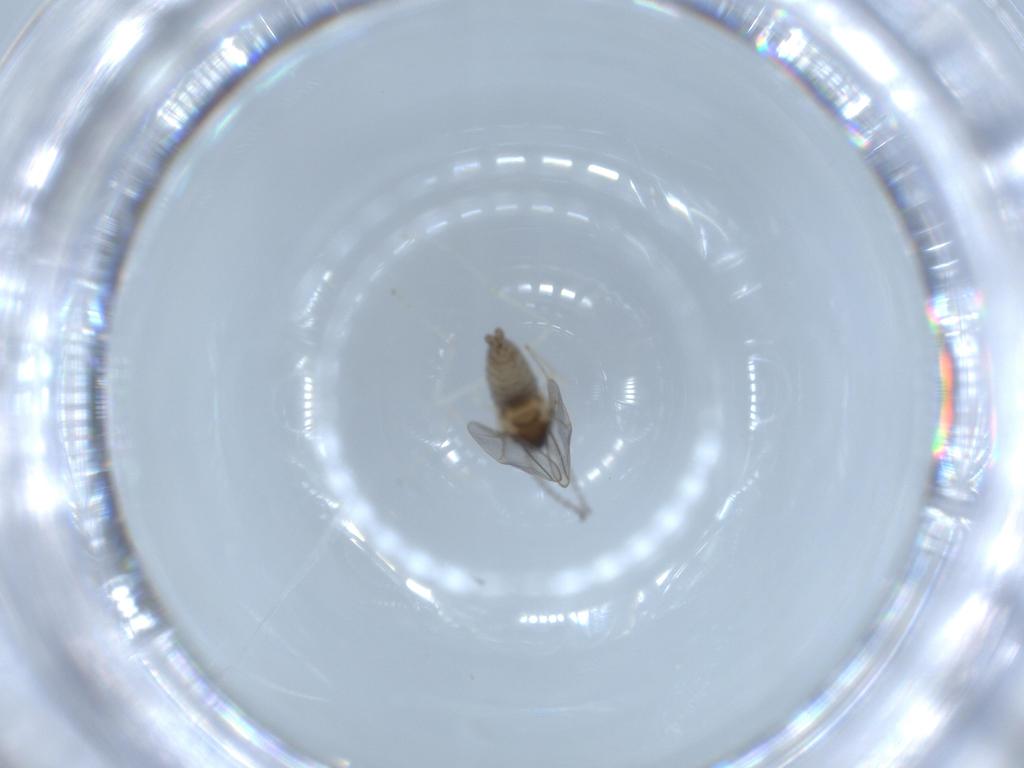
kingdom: Animalia
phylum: Arthropoda
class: Insecta
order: Diptera
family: Cecidomyiidae
